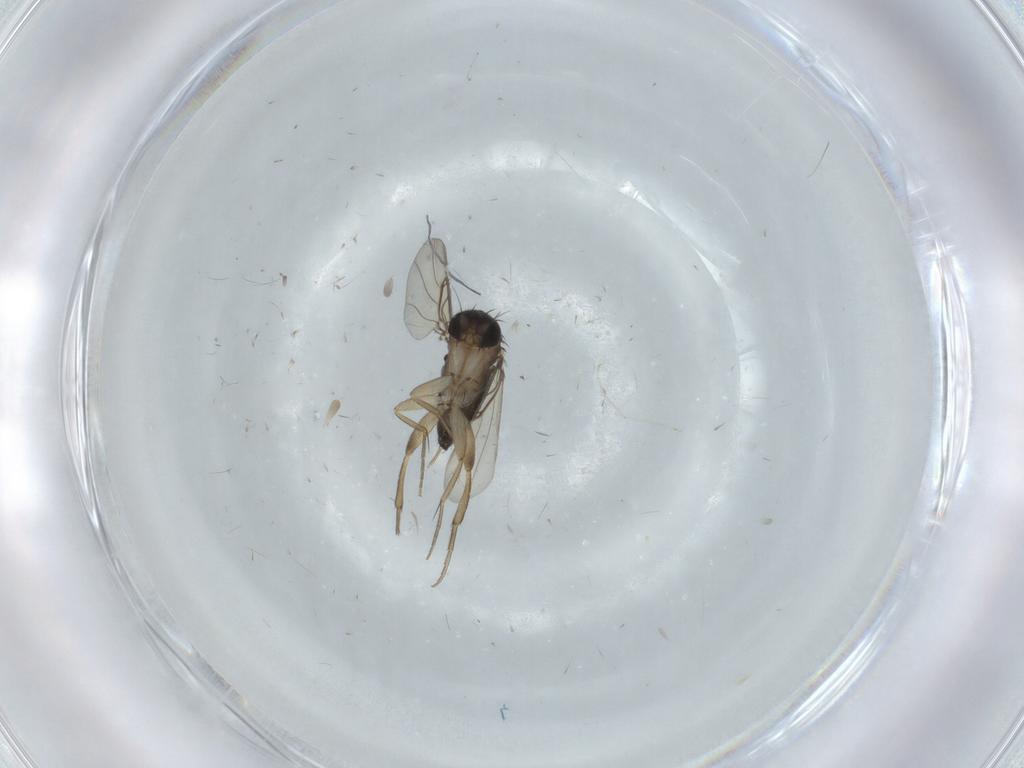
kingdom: Animalia
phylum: Arthropoda
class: Insecta
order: Diptera
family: Phoridae
